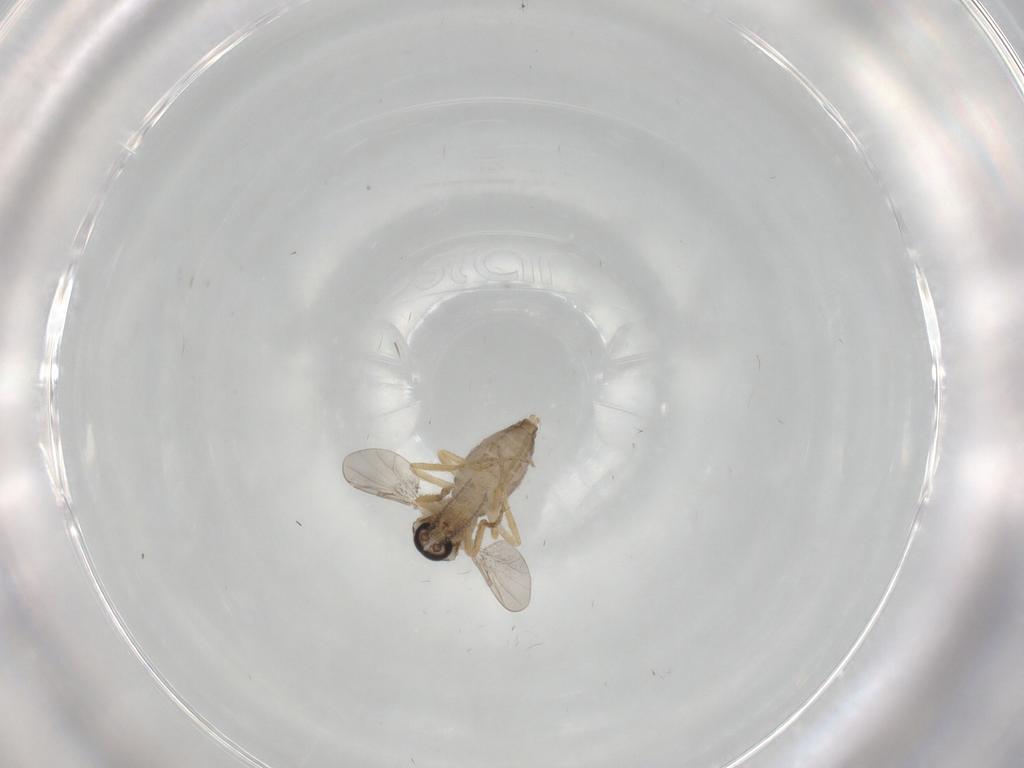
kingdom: Animalia
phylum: Arthropoda
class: Insecta
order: Diptera
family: Ceratopogonidae
